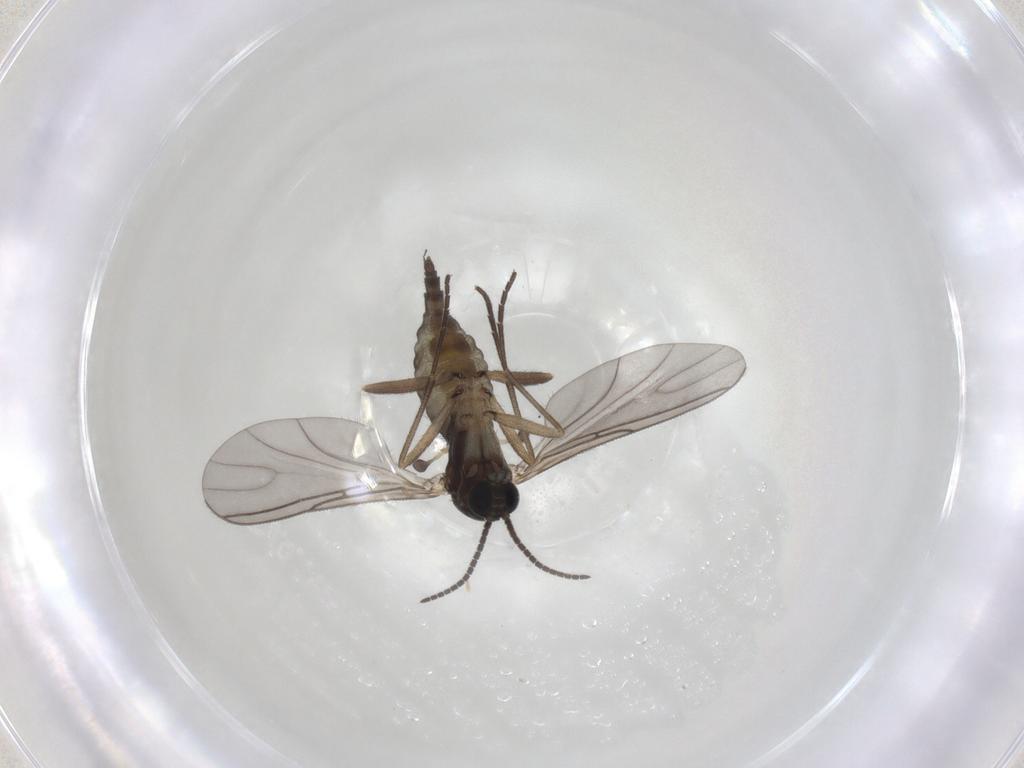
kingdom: Animalia
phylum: Arthropoda
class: Insecta
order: Diptera
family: Sciaridae
